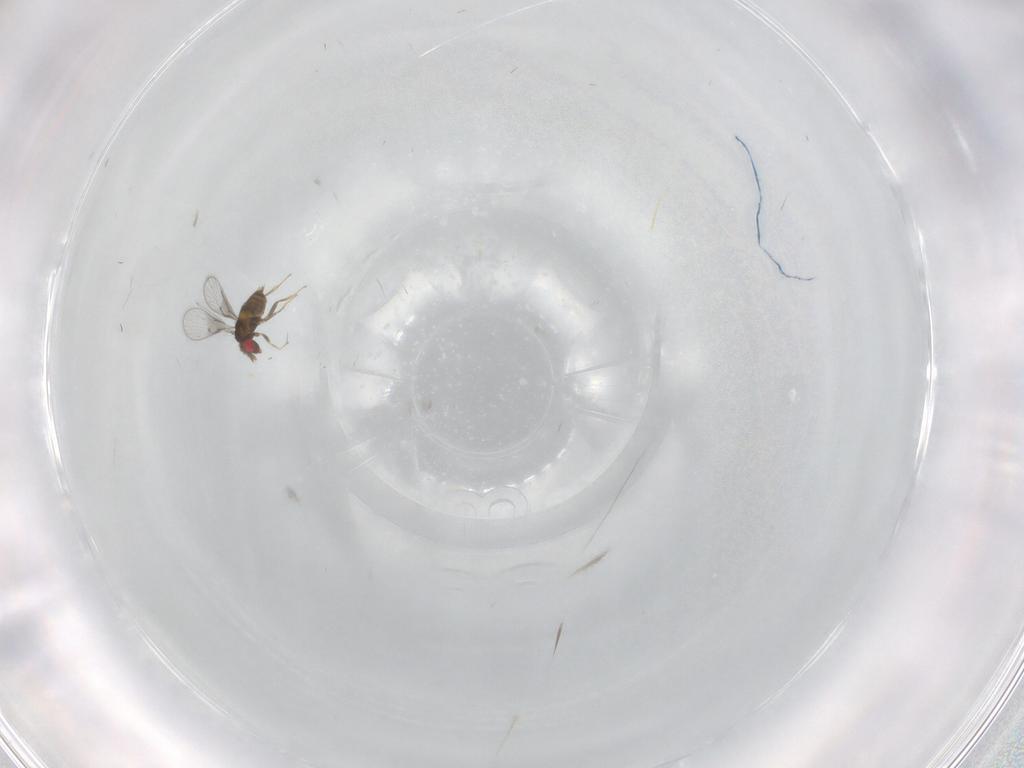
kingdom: Animalia
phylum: Arthropoda
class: Insecta
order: Hymenoptera
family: Trichogrammatidae
